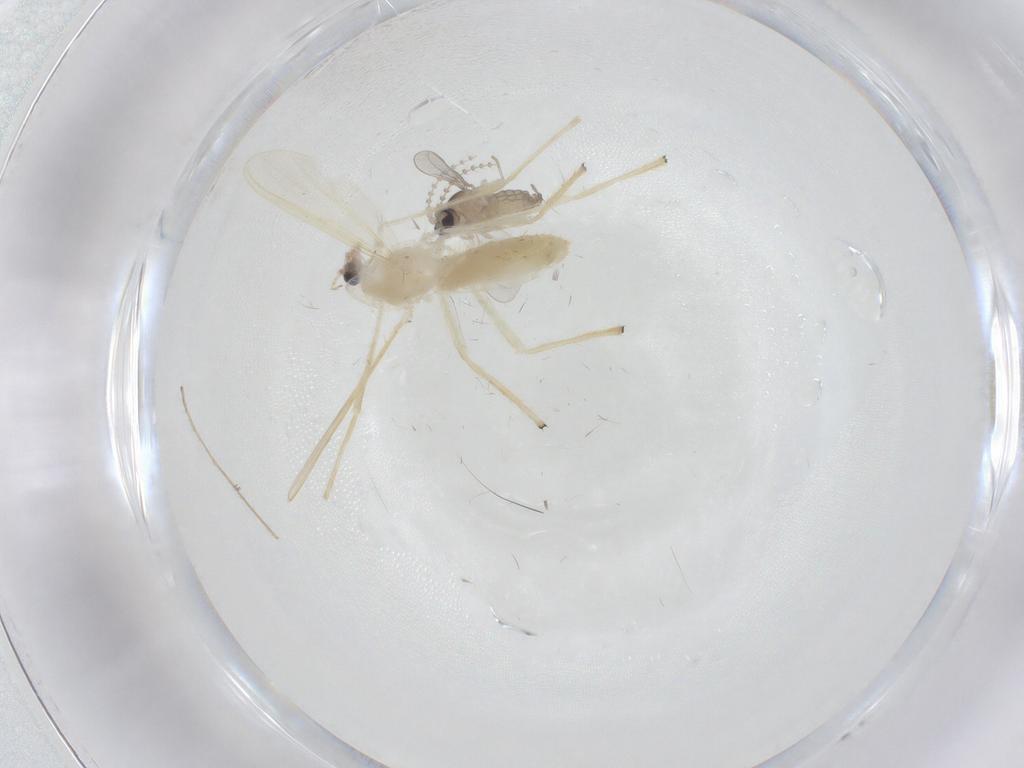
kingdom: Animalia
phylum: Arthropoda
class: Insecta
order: Diptera
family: Cecidomyiidae
